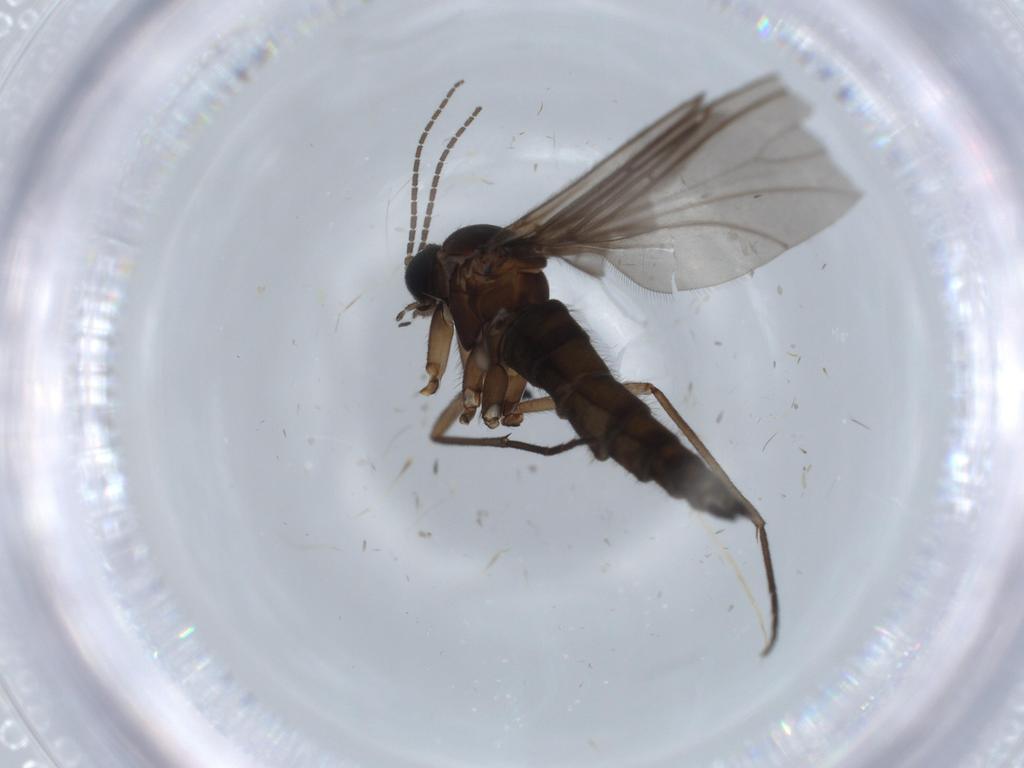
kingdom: Animalia
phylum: Arthropoda
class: Insecta
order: Diptera
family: Sciaridae
